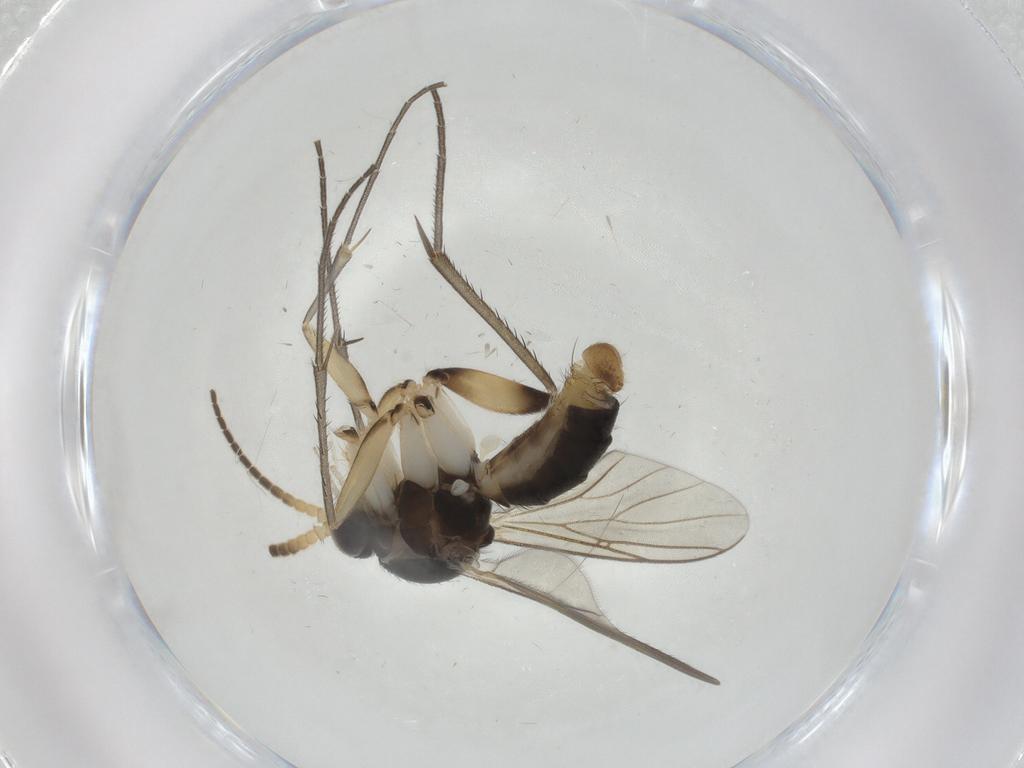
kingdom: Animalia
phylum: Arthropoda
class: Insecta
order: Diptera
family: Mycetophilidae
